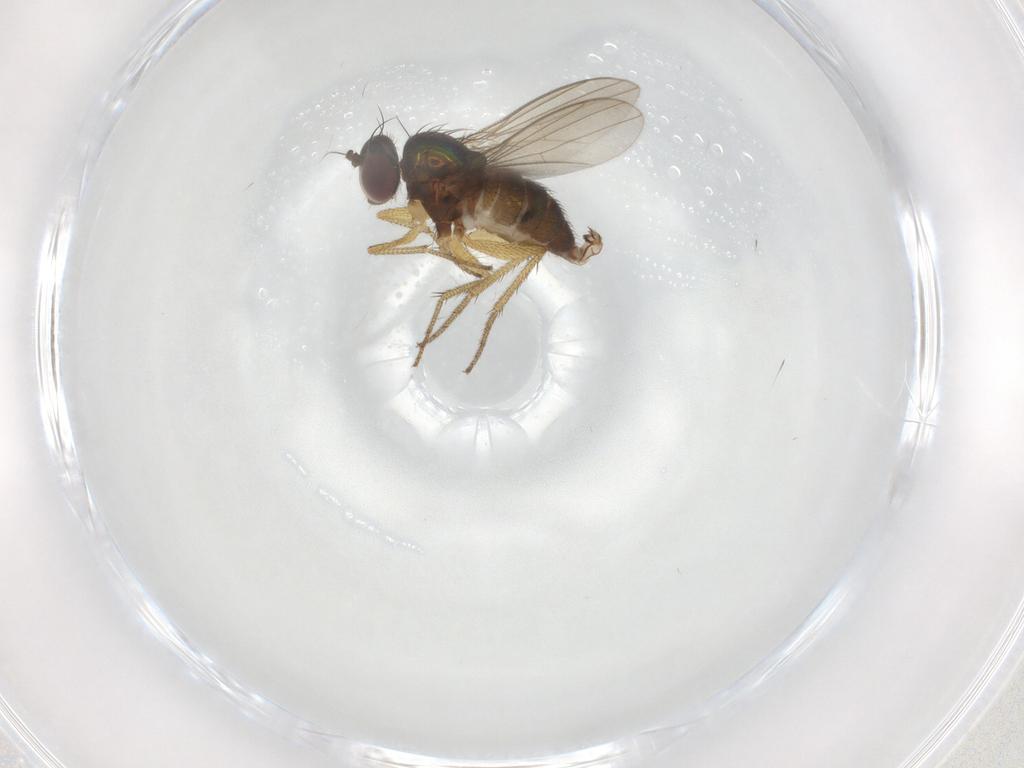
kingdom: Animalia
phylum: Arthropoda
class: Insecta
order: Diptera
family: Dolichopodidae
